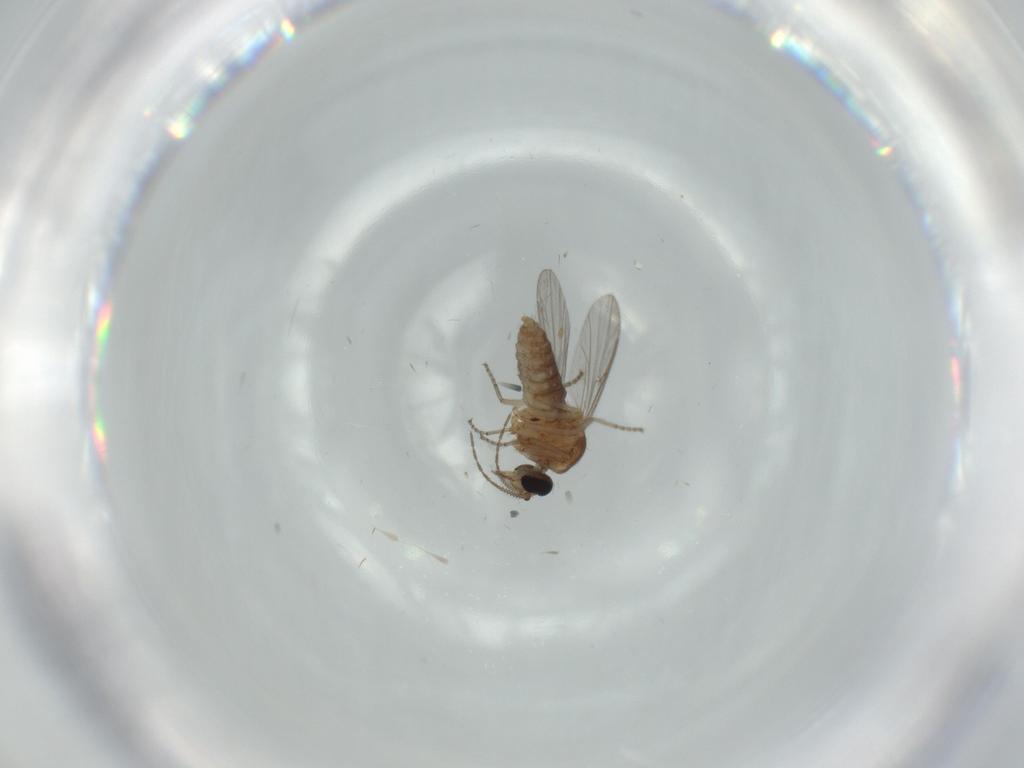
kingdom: Animalia
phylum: Arthropoda
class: Insecta
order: Diptera
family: Ceratopogonidae
